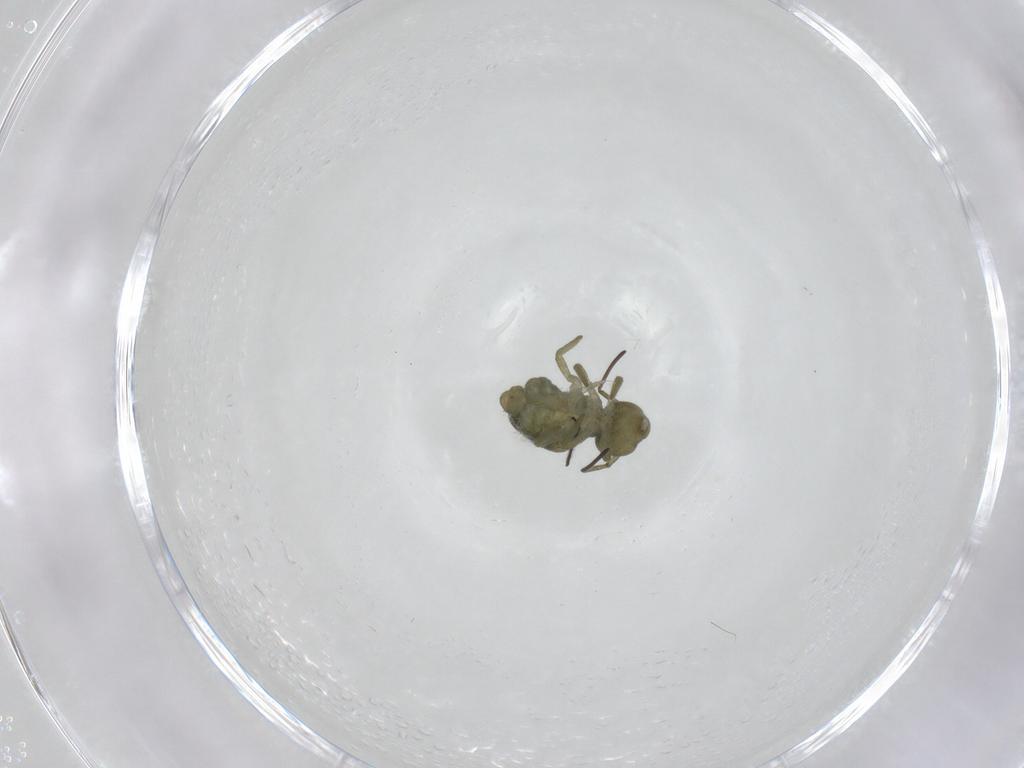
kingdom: Animalia
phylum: Arthropoda
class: Collembola
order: Symphypleona
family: Sminthuridae
